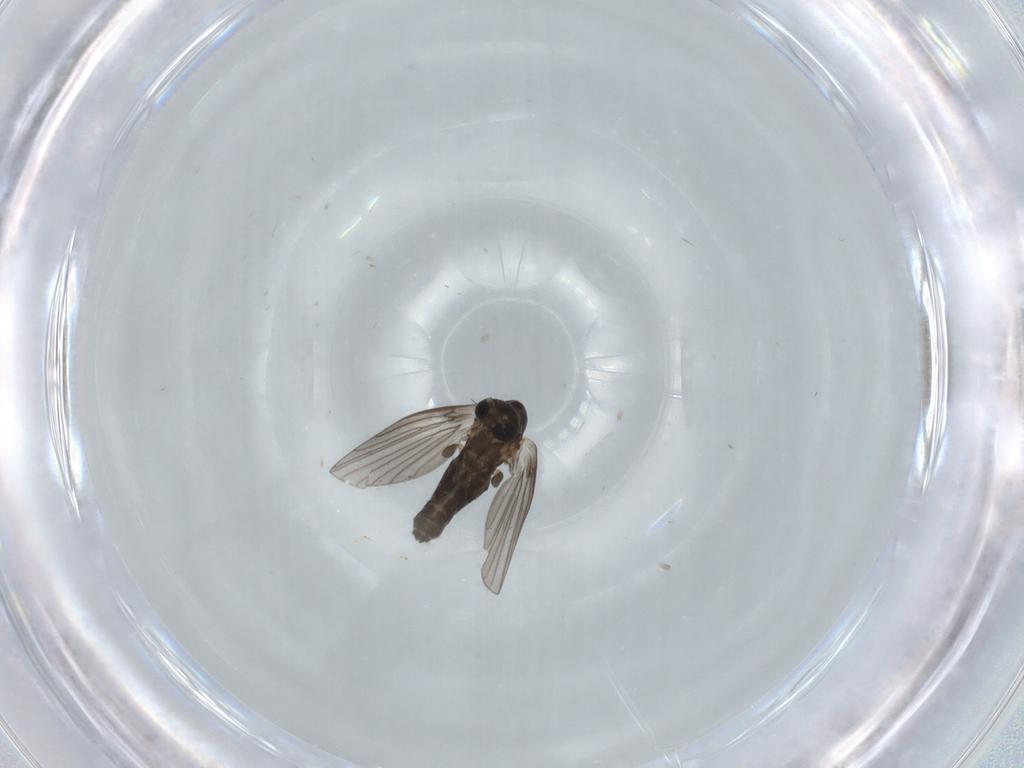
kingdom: Animalia
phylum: Arthropoda
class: Insecta
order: Diptera
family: Cecidomyiidae
